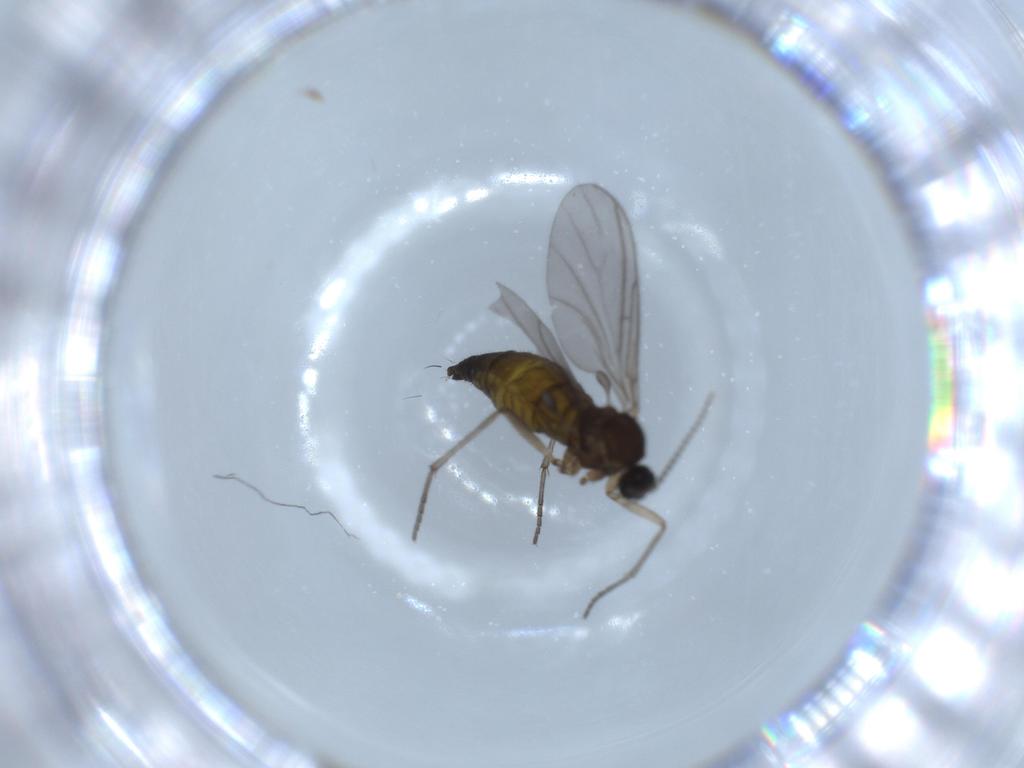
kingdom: Animalia
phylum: Arthropoda
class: Insecta
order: Diptera
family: Sciaridae
